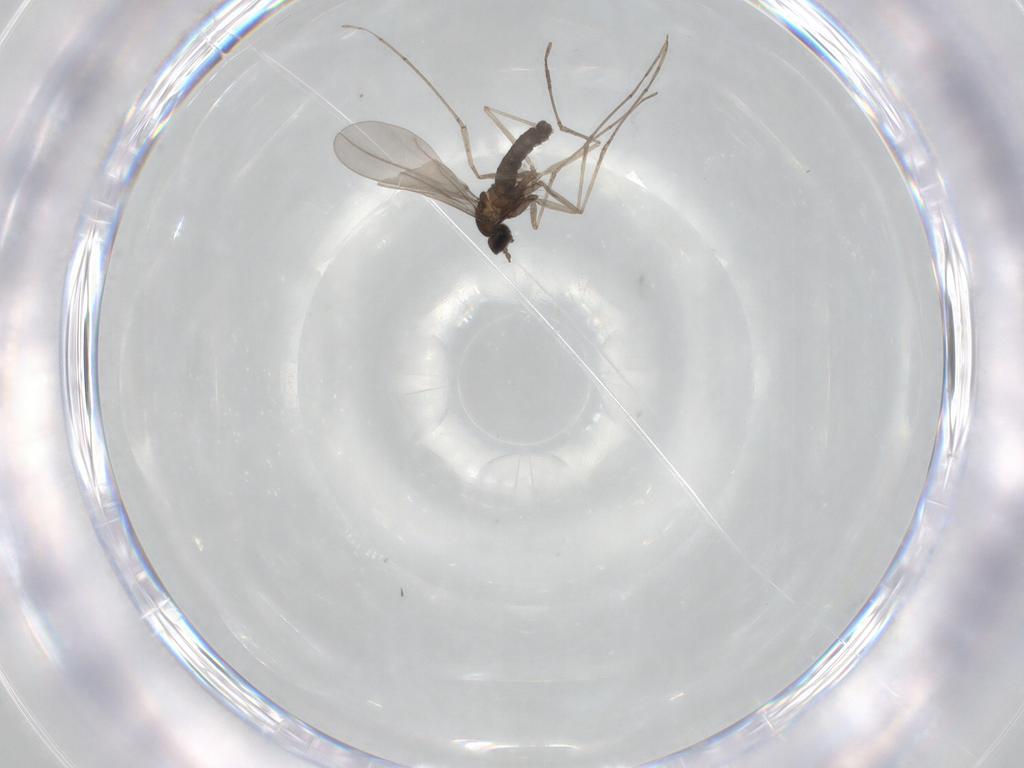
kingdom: Animalia
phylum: Arthropoda
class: Insecta
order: Diptera
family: Cecidomyiidae
